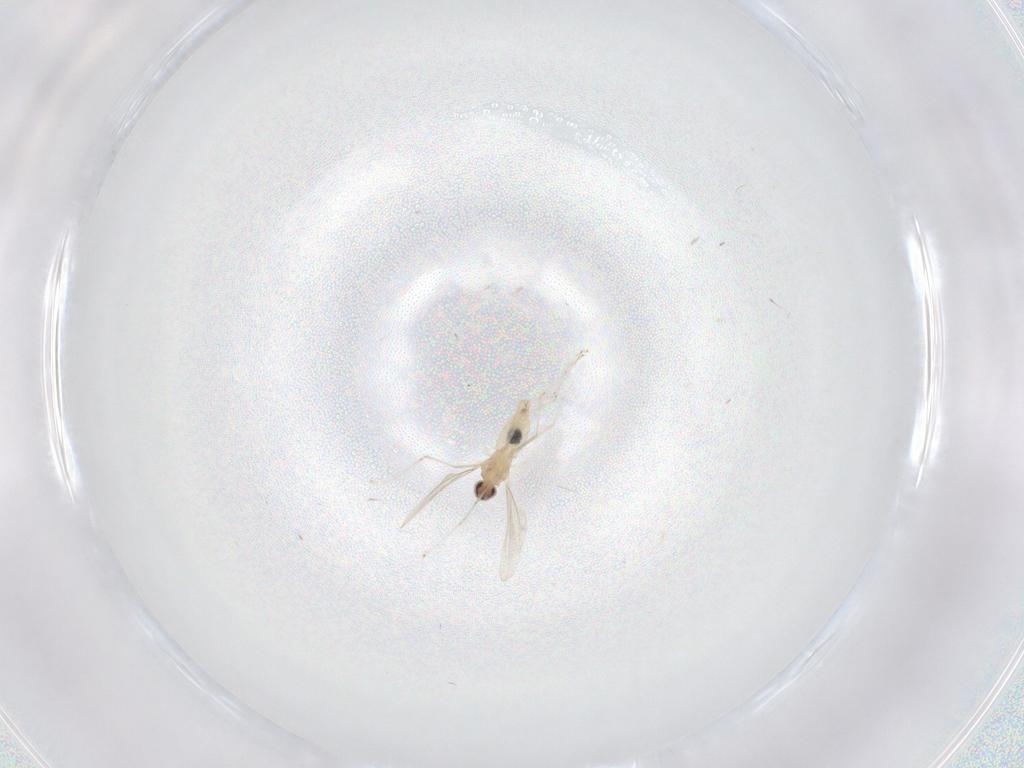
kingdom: Animalia
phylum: Arthropoda
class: Insecta
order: Diptera
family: Cecidomyiidae
